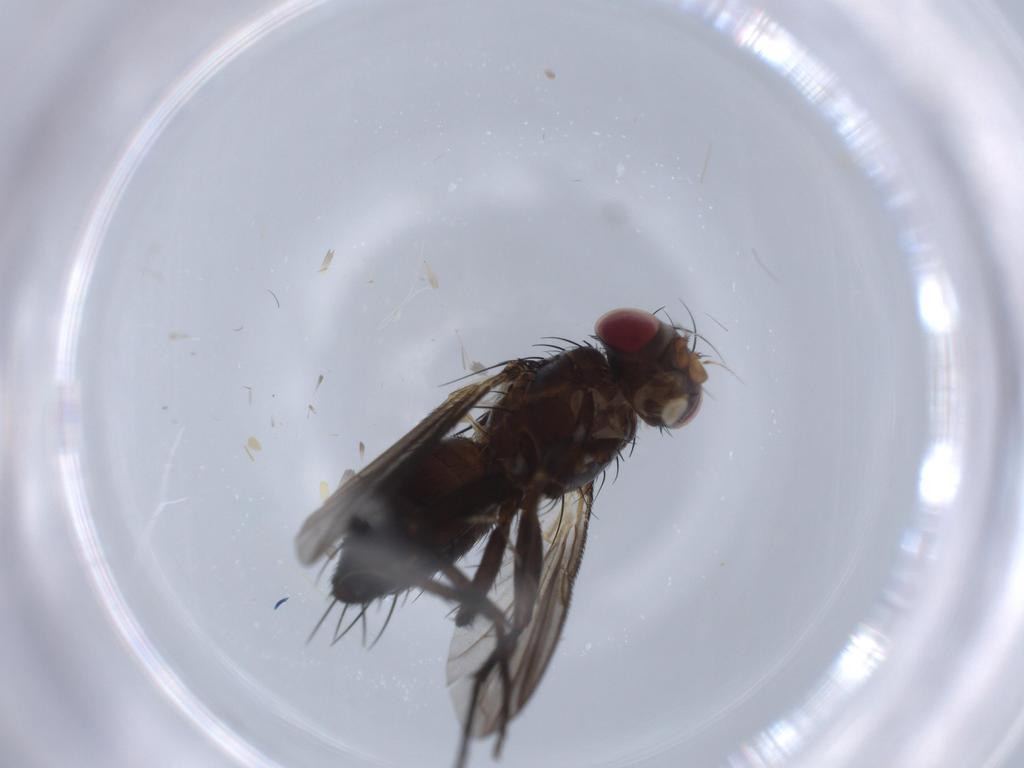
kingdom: Animalia
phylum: Arthropoda
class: Insecta
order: Diptera
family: Tachinidae
